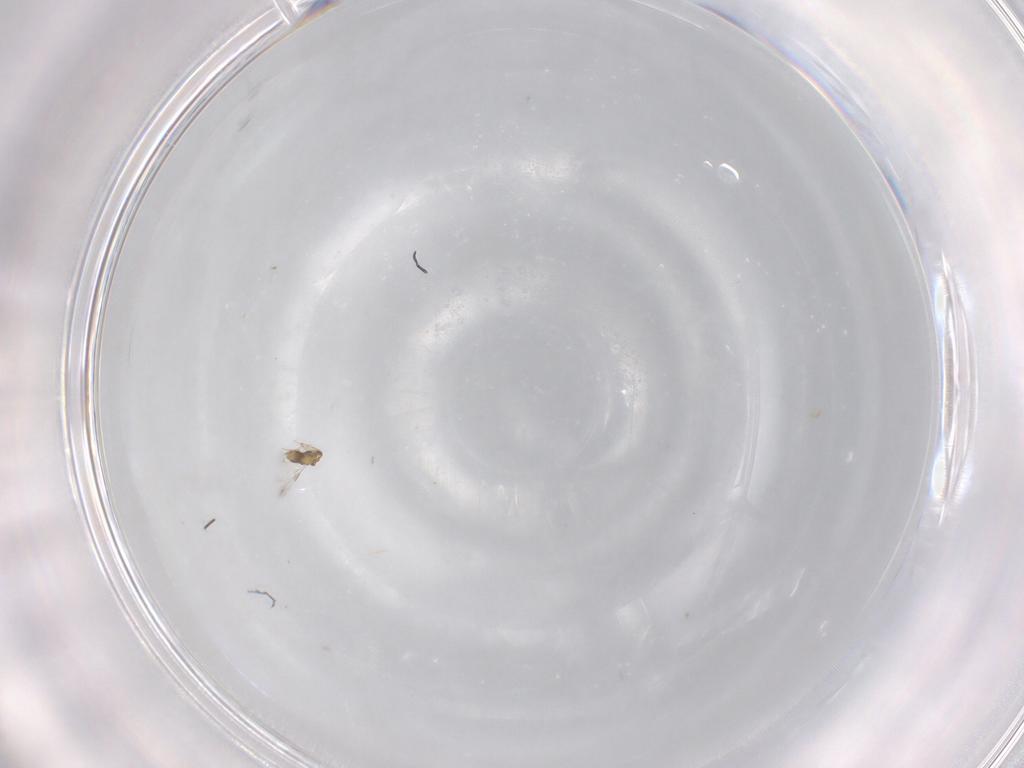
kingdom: Animalia
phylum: Arthropoda
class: Insecta
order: Hymenoptera
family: Aphelinidae
